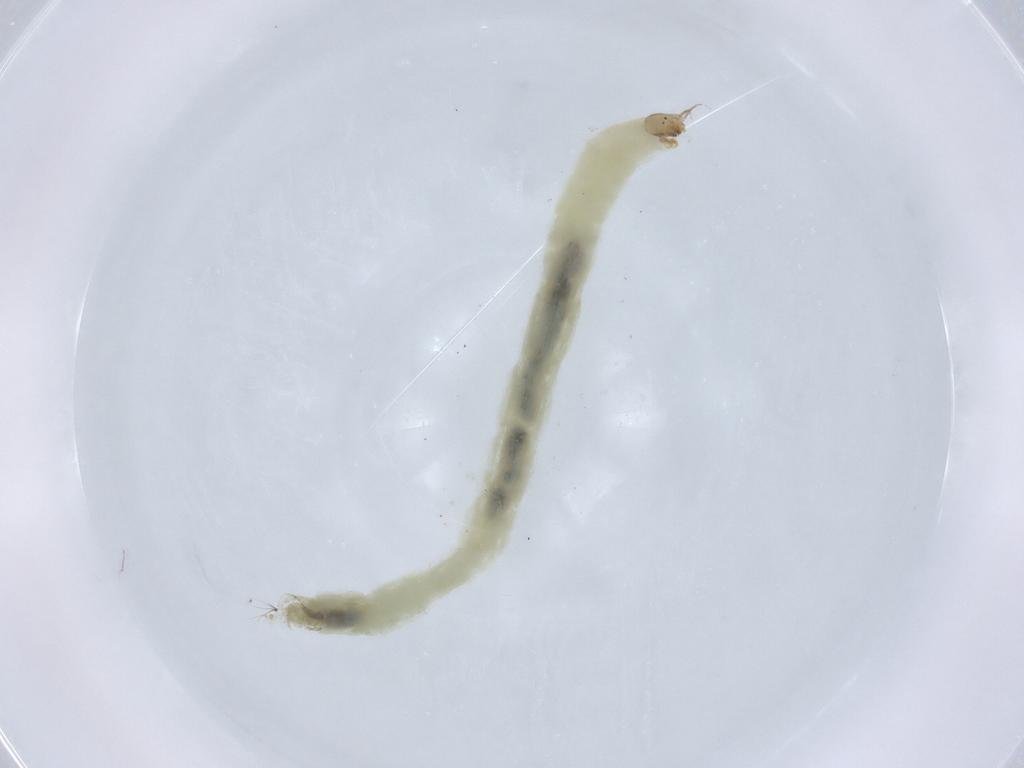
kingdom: Animalia
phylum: Arthropoda
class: Insecta
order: Diptera
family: Chironomidae
